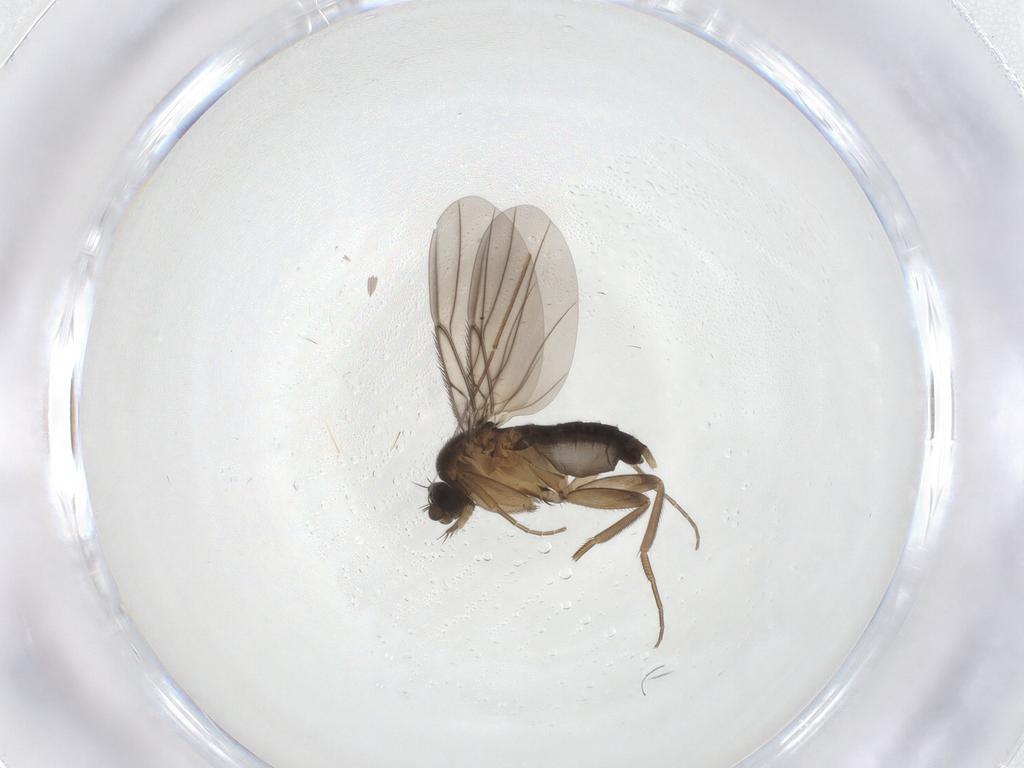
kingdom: Animalia
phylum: Arthropoda
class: Insecta
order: Diptera
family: Phoridae
